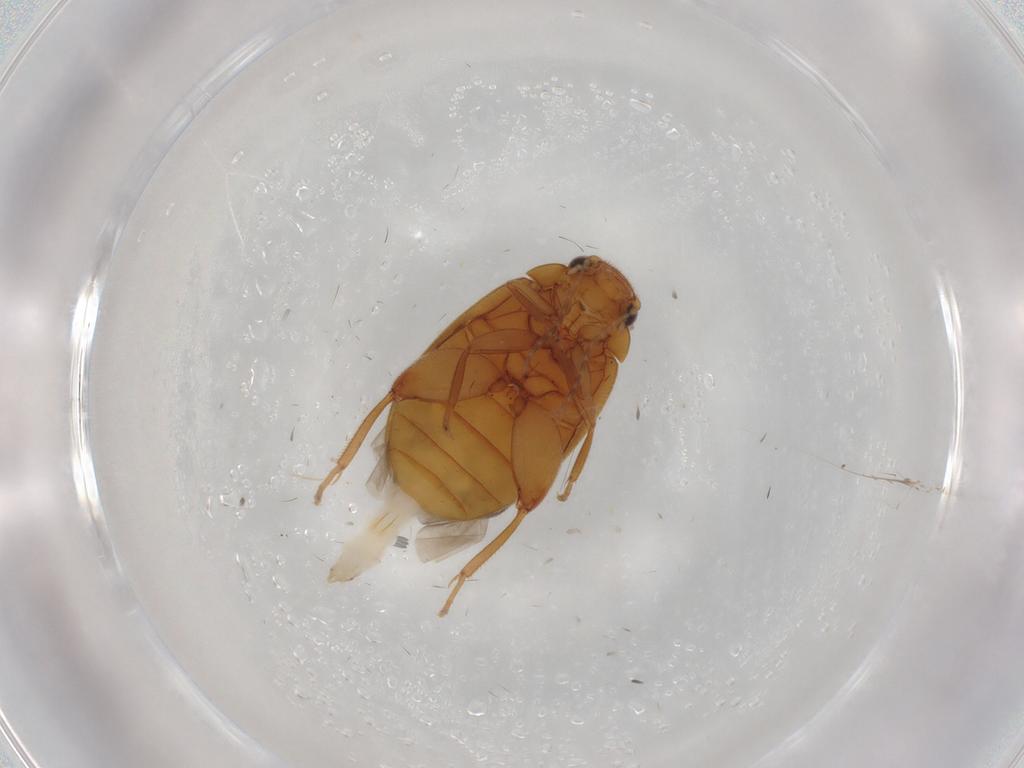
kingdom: Animalia
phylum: Arthropoda
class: Insecta
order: Coleoptera
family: Scirtidae
